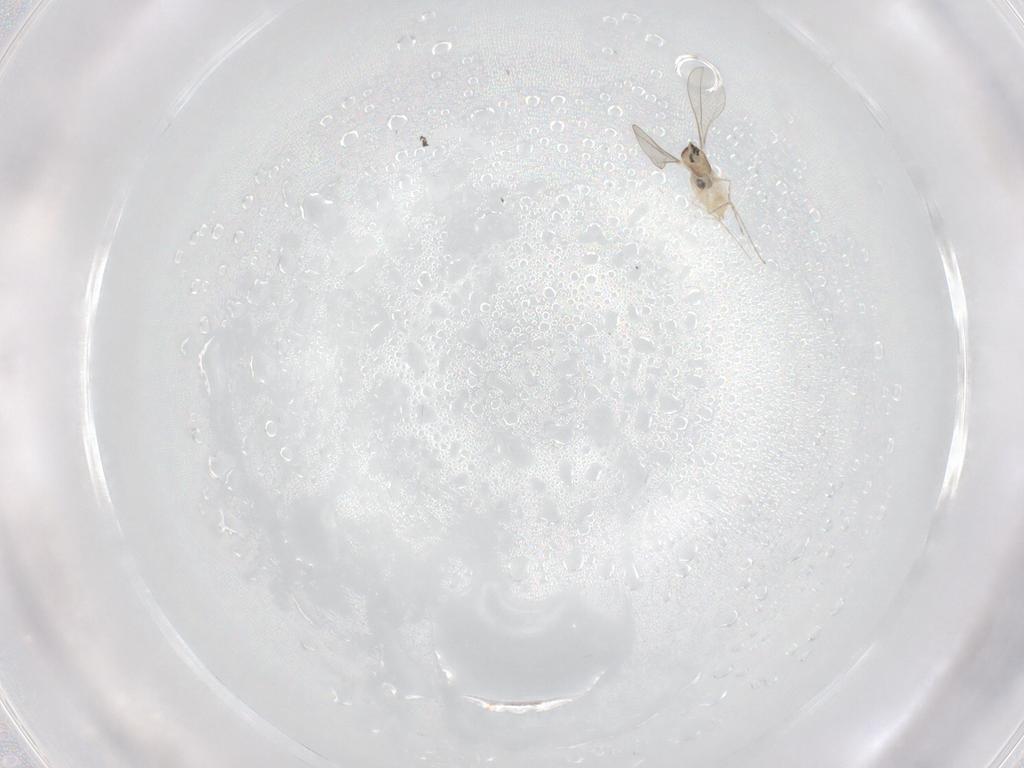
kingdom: Animalia
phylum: Arthropoda
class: Insecta
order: Diptera
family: Cecidomyiidae
